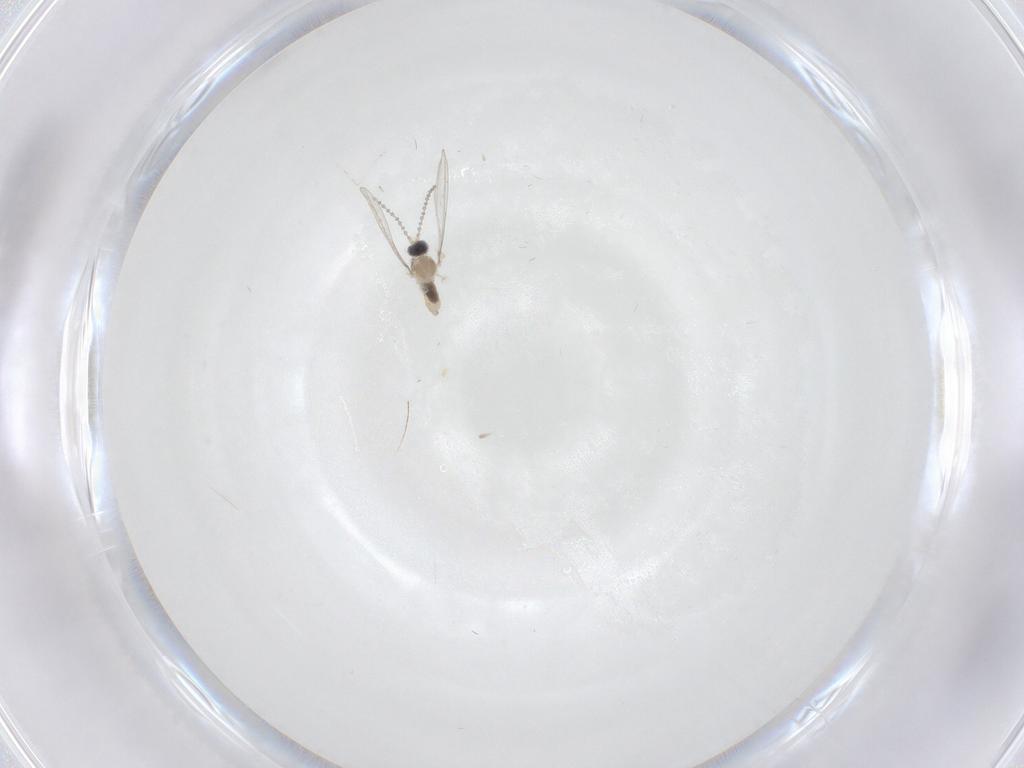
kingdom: Animalia
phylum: Arthropoda
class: Insecta
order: Diptera
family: Cecidomyiidae
